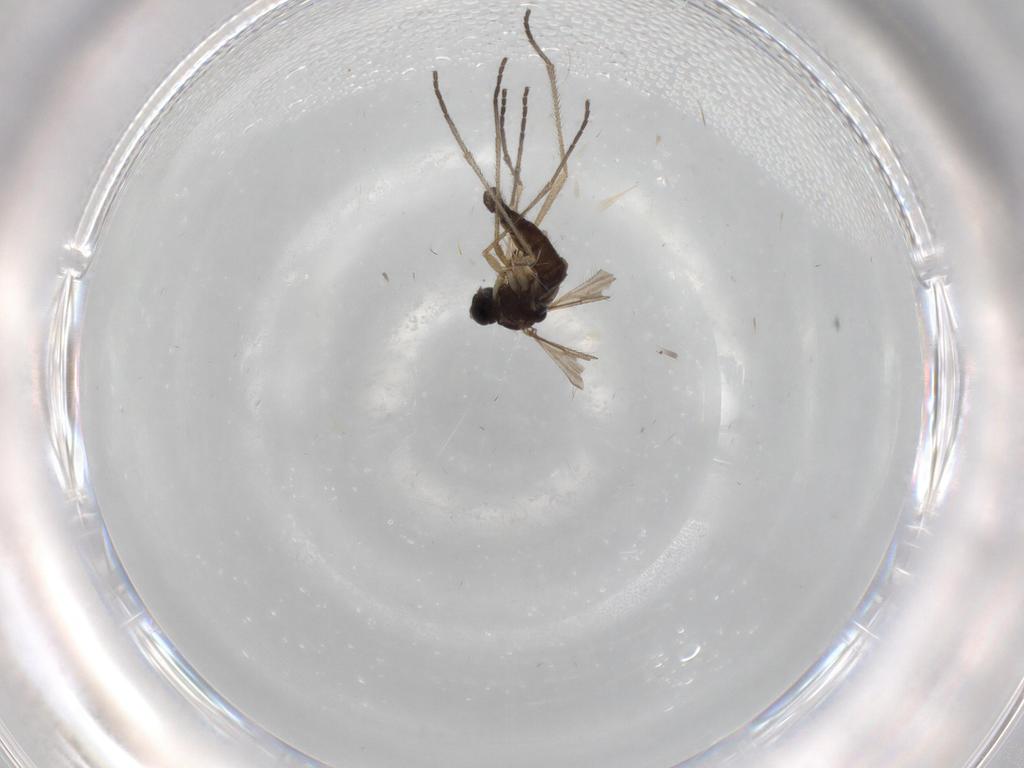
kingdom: Animalia
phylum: Arthropoda
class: Insecta
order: Diptera
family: Sciaridae
